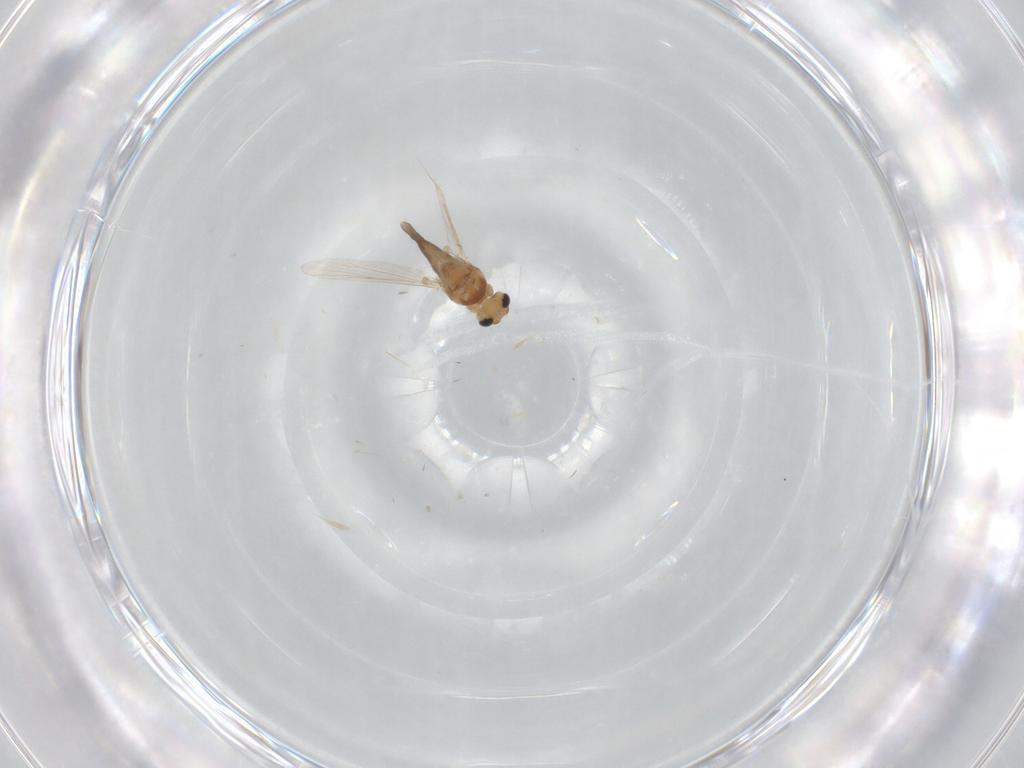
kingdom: Animalia
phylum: Arthropoda
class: Insecta
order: Diptera
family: Chironomidae
